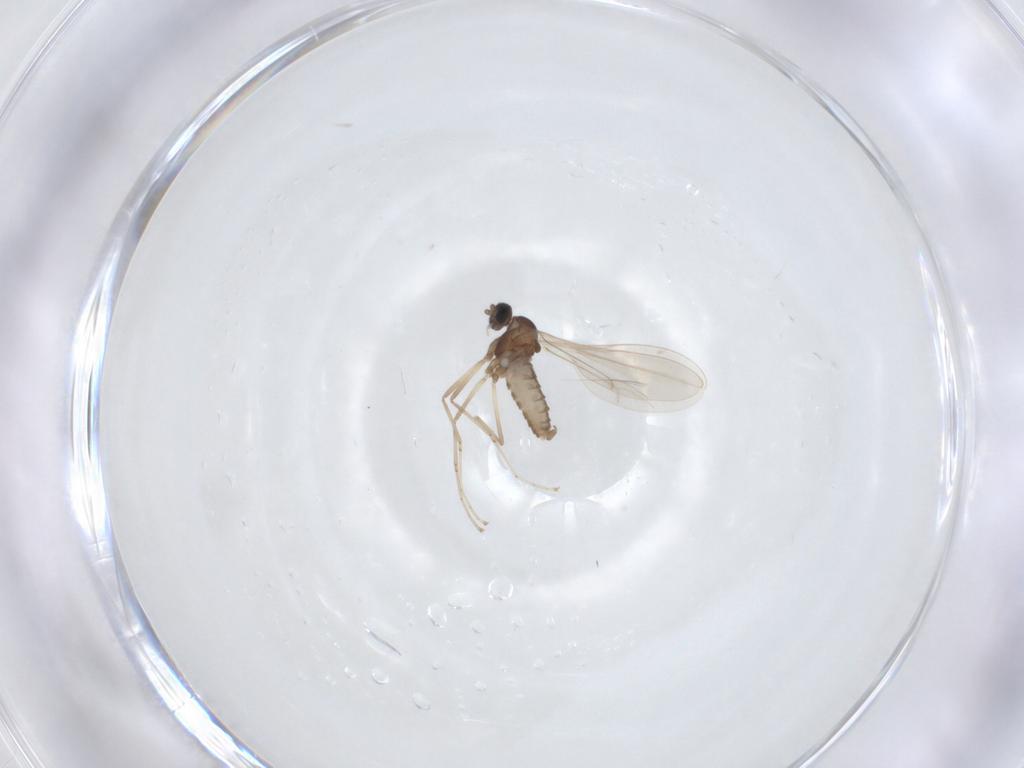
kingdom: Animalia
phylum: Arthropoda
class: Insecta
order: Diptera
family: Cecidomyiidae
